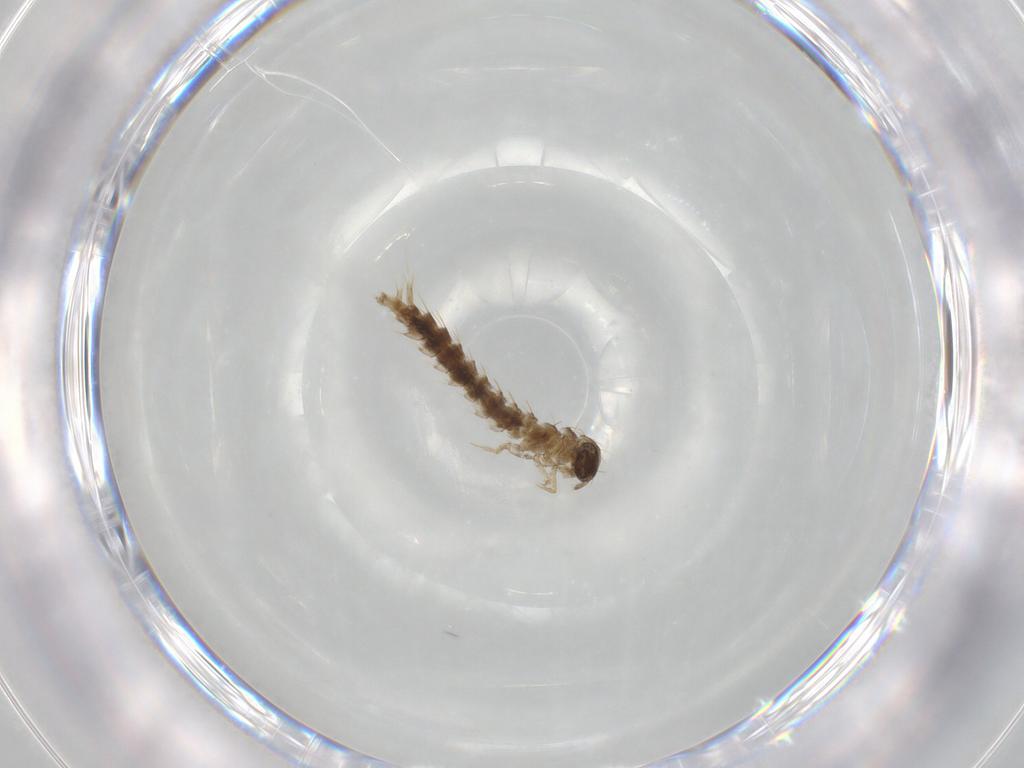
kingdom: Animalia
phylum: Arthropoda
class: Insecta
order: Coleoptera
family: Staphylinidae
